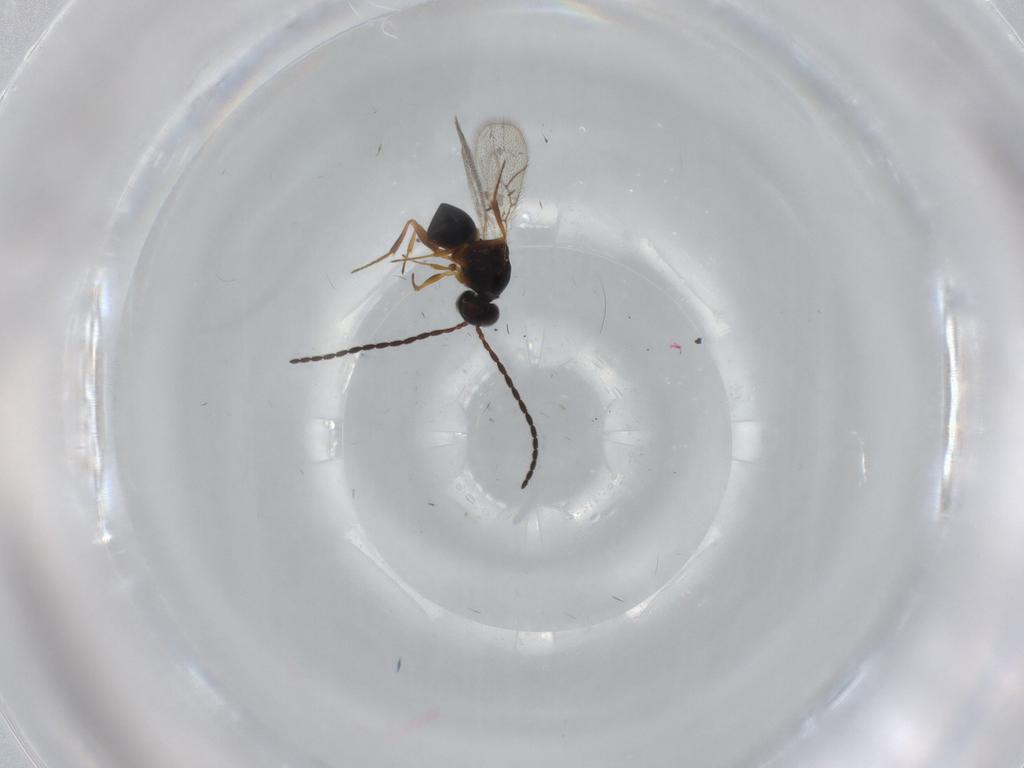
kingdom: Animalia
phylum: Arthropoda
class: Insecta
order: Hymenoptera
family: Figitidae
